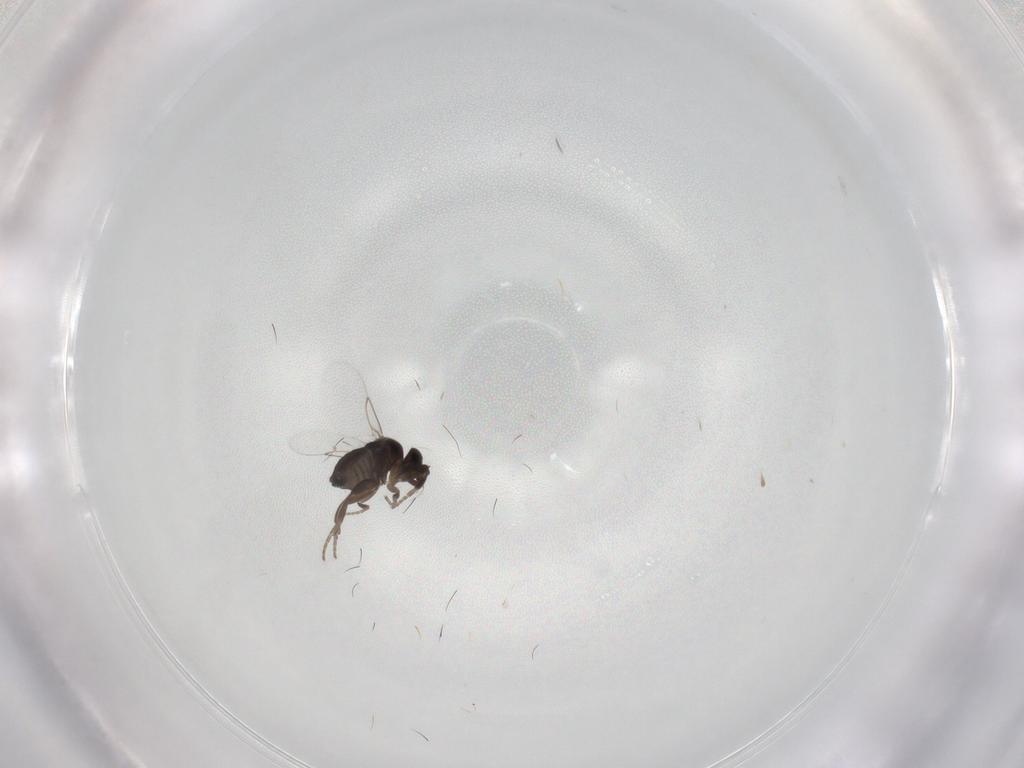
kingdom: Animalia
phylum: Arthropoda
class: Insecta
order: Diptera
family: Phoridae
